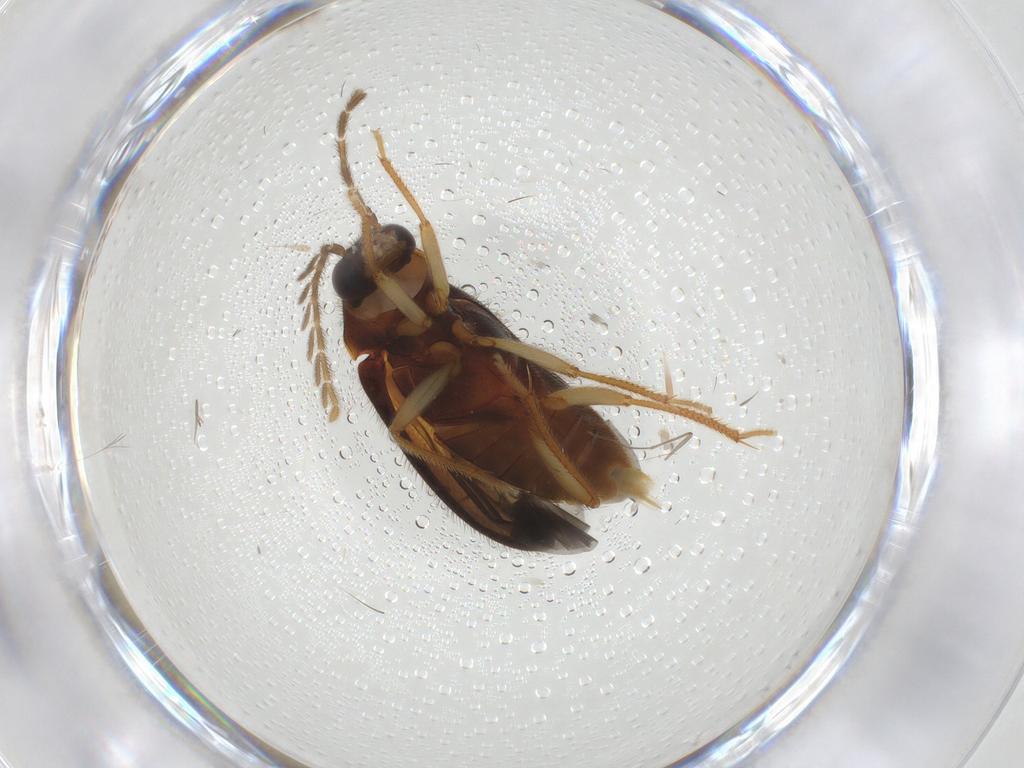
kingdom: Animalia
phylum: Arthropoda
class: Insecta
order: Coleoptera
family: Ptilodactylidae
